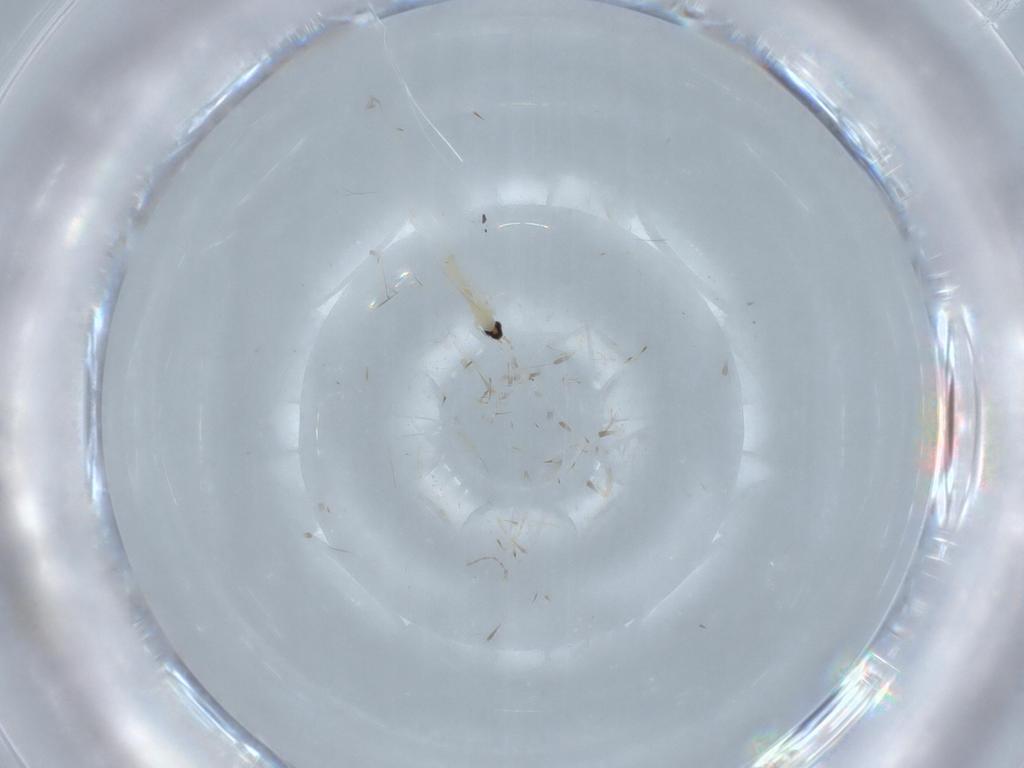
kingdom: Animalia
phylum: Arthropoda
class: Insecta
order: Diptera
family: Cecidomyiidae
